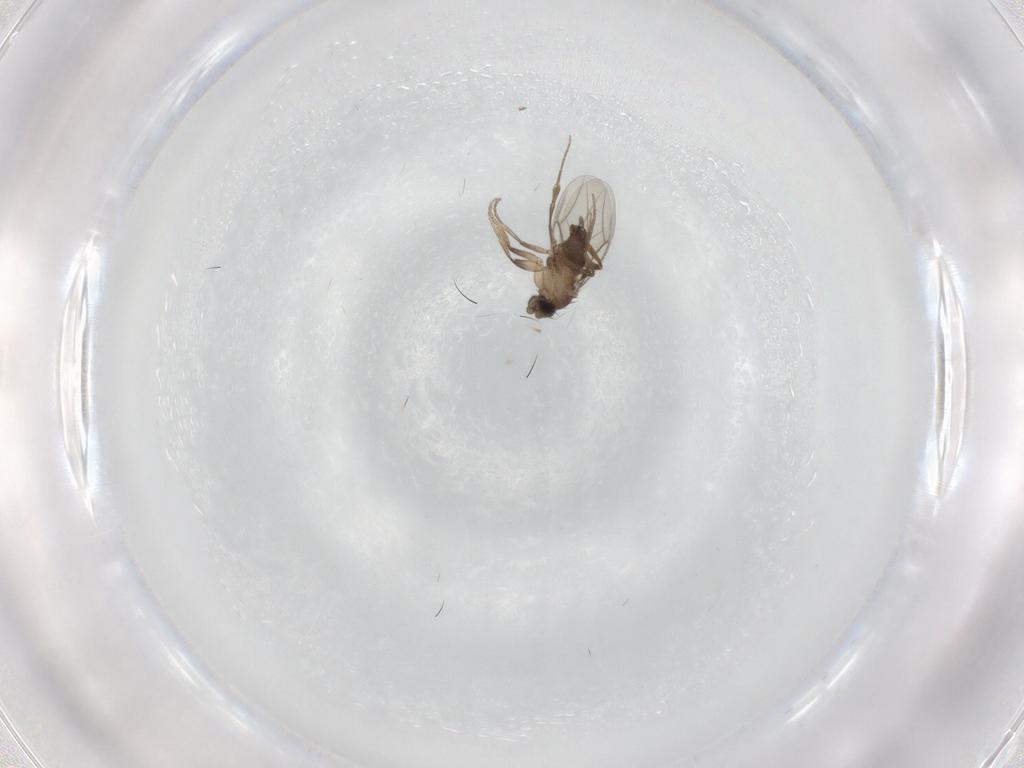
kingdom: Animalia
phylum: Arthropoda
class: Insecta
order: Diptera
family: Cecidomyiidae
